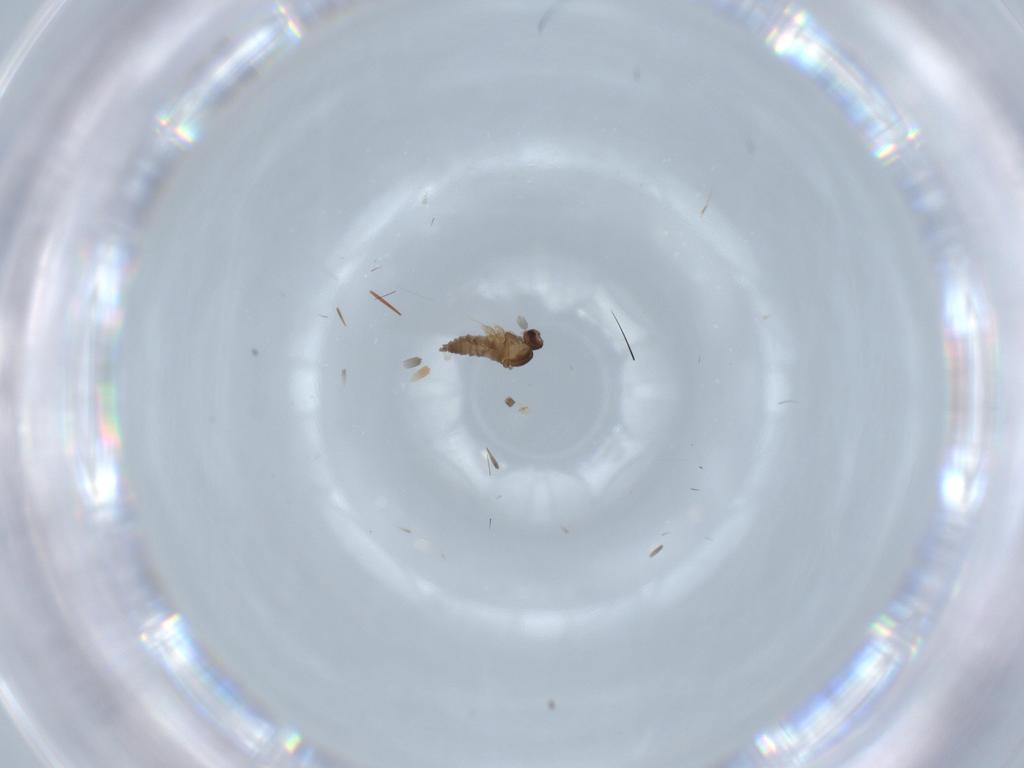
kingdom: Animalia
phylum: Arthropoda
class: Insecta
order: Diptera
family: Cecidomyiidae
